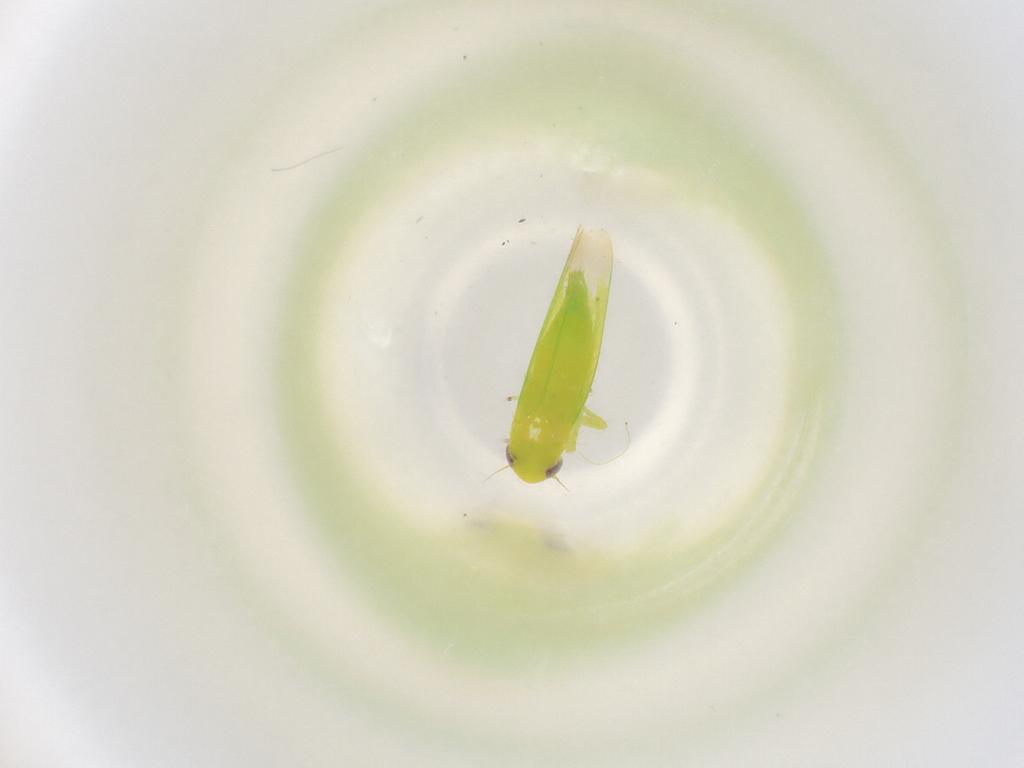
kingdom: Animalia
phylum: Arthropoda
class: Insecta
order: Hemiptera
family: Cicadellidae
